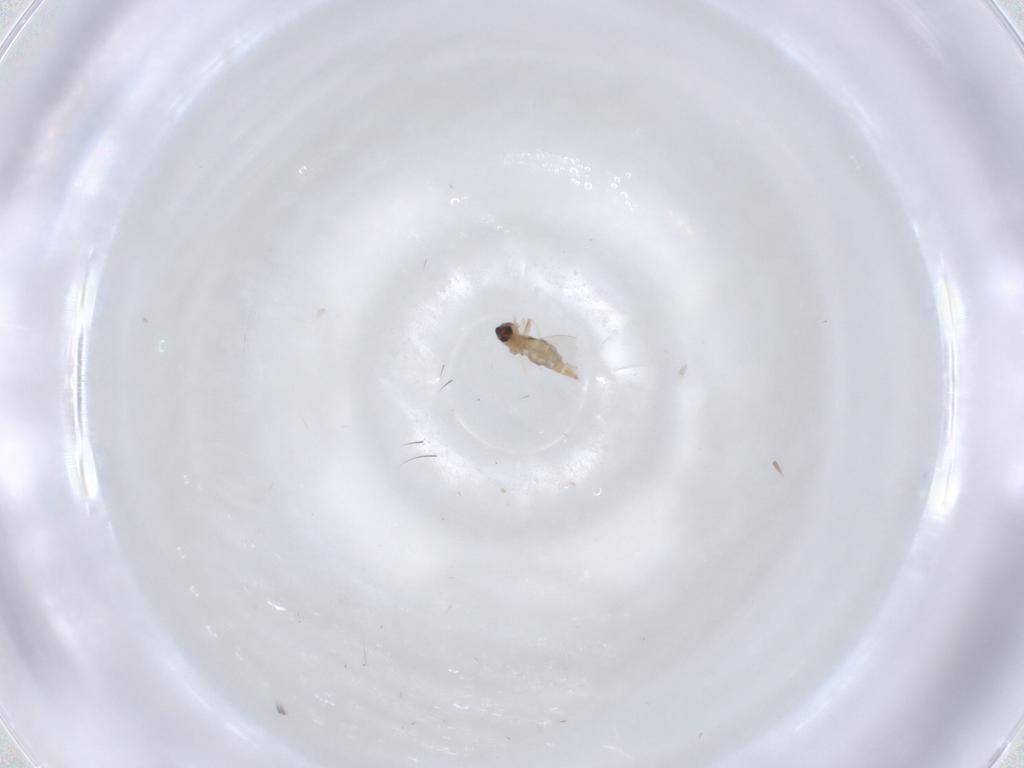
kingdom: Animalia
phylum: Arthropoda
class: Insecta
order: Diptera
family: Cecidomyiidae
